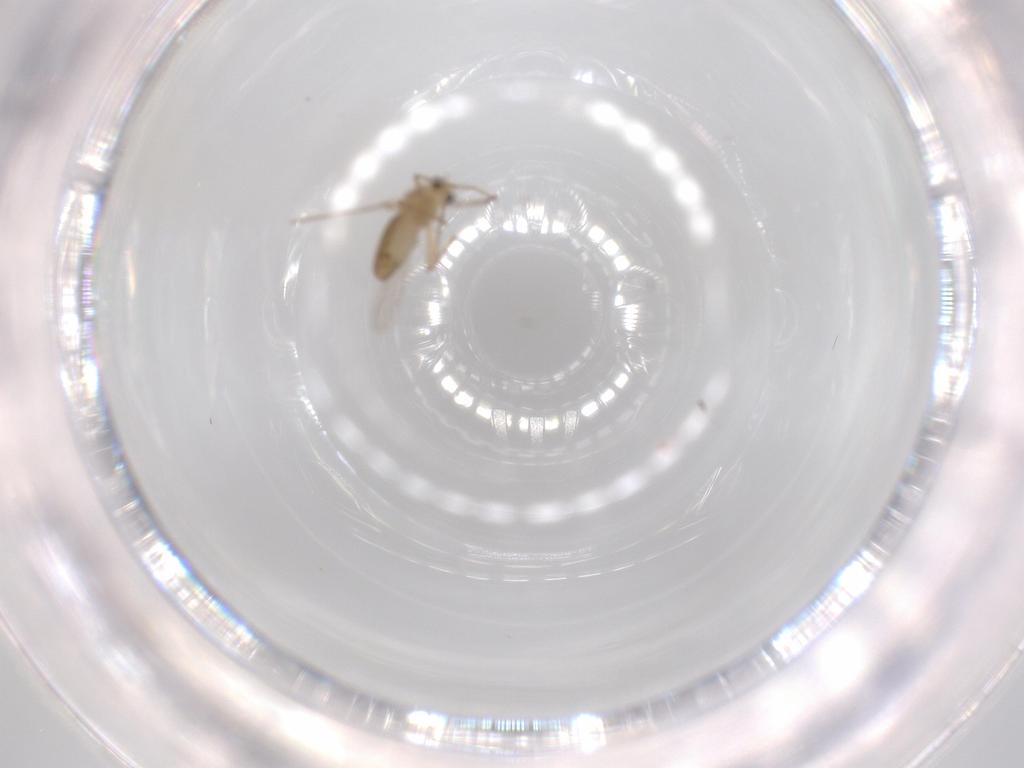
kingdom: Animalia
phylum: Arthropoda
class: Insecta
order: Diptera
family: Chironomidae
